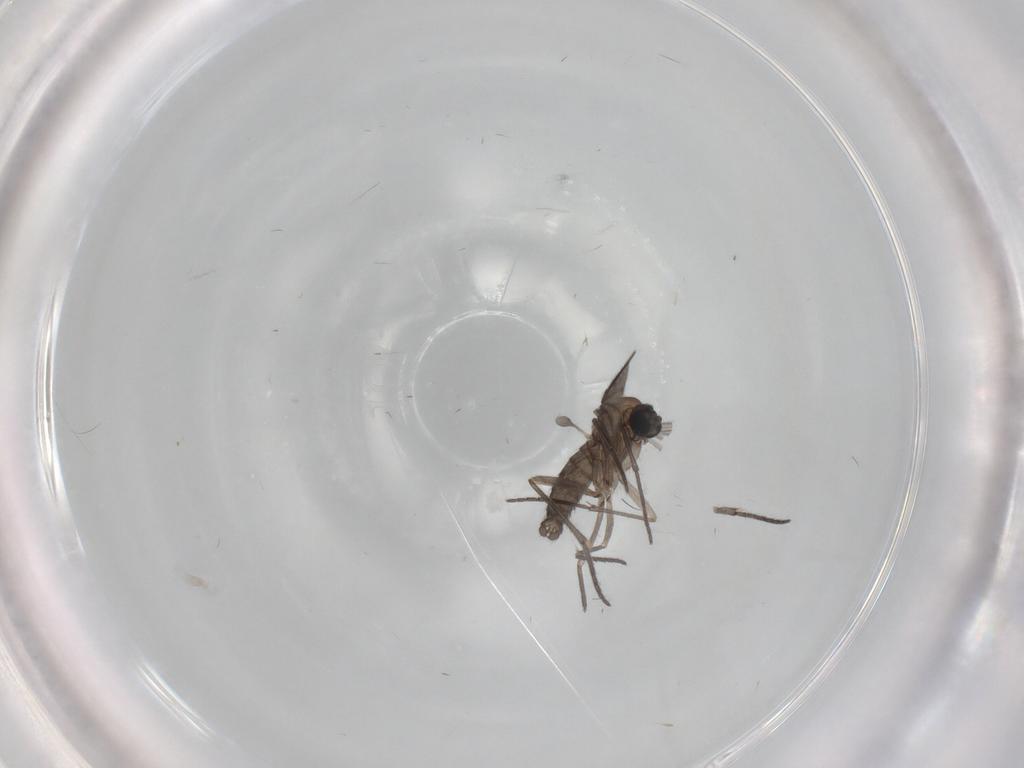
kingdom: Animalia
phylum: Arthropoda
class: Insecta
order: Diptera
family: Sciaridae
